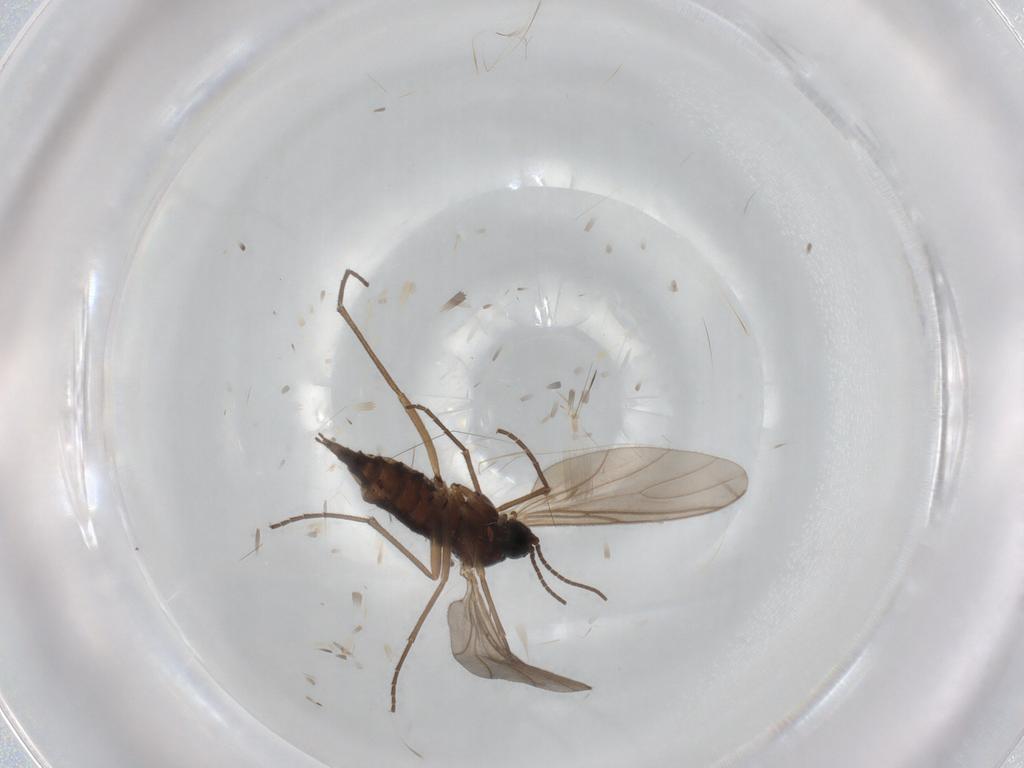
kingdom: Animalia
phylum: Arthropoda
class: Insecta
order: Diptera
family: Sciaridae
